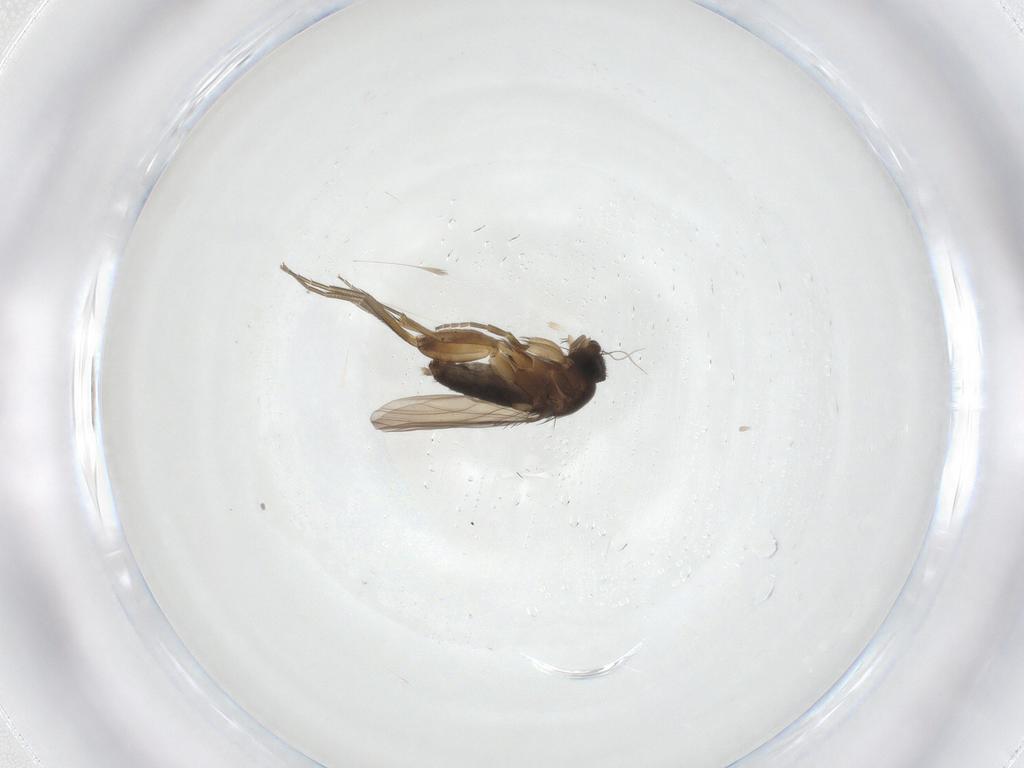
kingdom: Animalia
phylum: Arthropoda
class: Insecta
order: Diptera
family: Sciaridae
